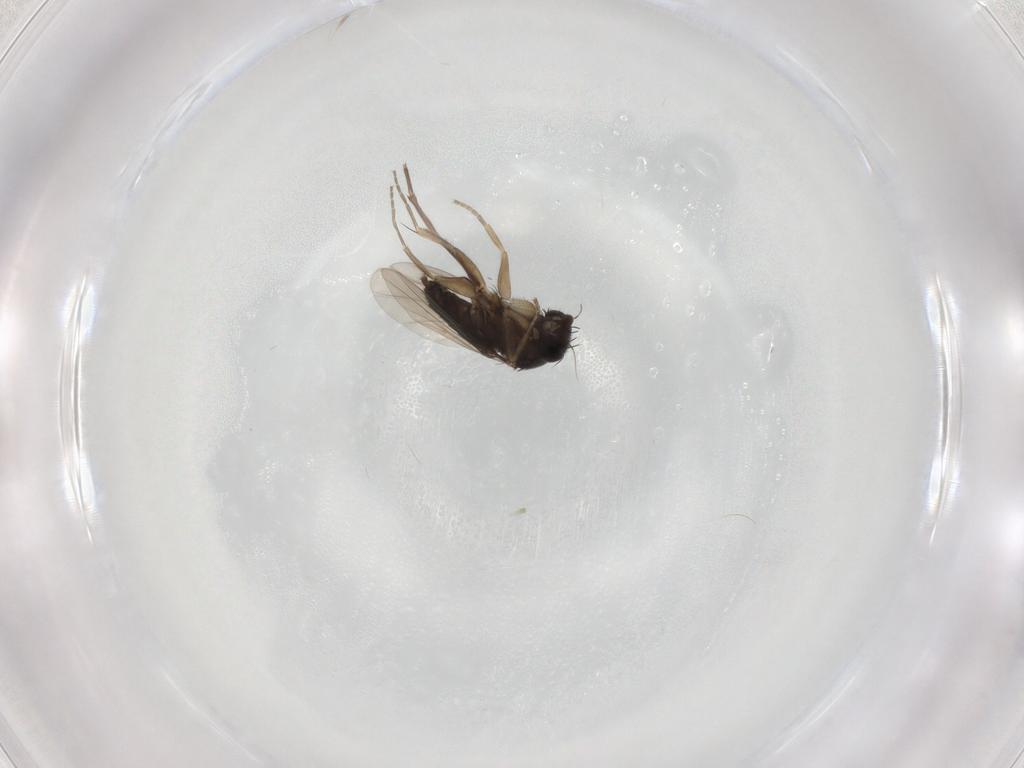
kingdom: Animalia
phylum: Arthropoda
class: Insecta
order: Diptera
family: Phoridae
